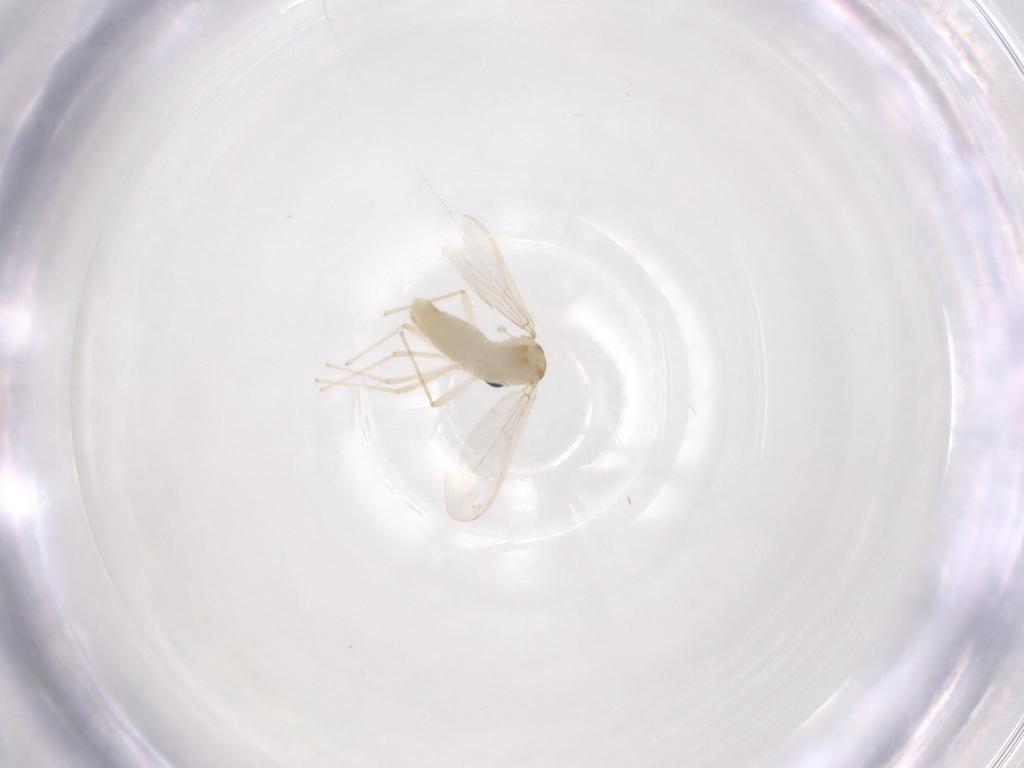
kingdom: Animalia
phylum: Arthropoda
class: Insecta
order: Diptera
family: Chironomidae
